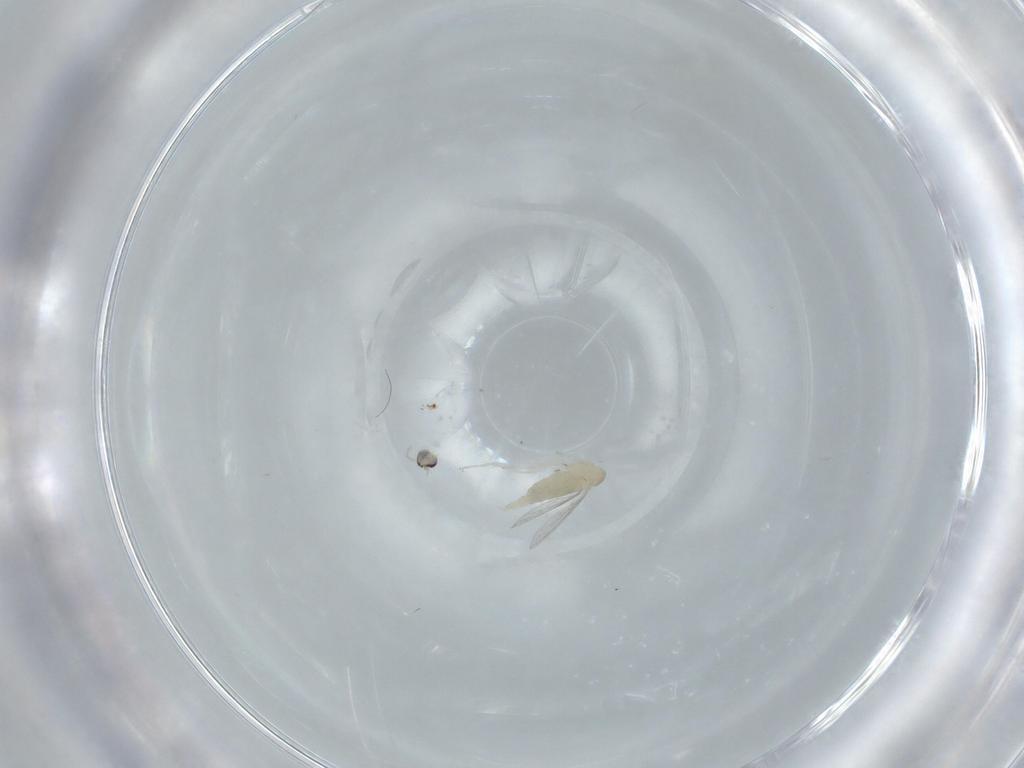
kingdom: Animalia
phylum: Arthropoda
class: Insecta
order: Diptera
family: Cecidomyiidae
